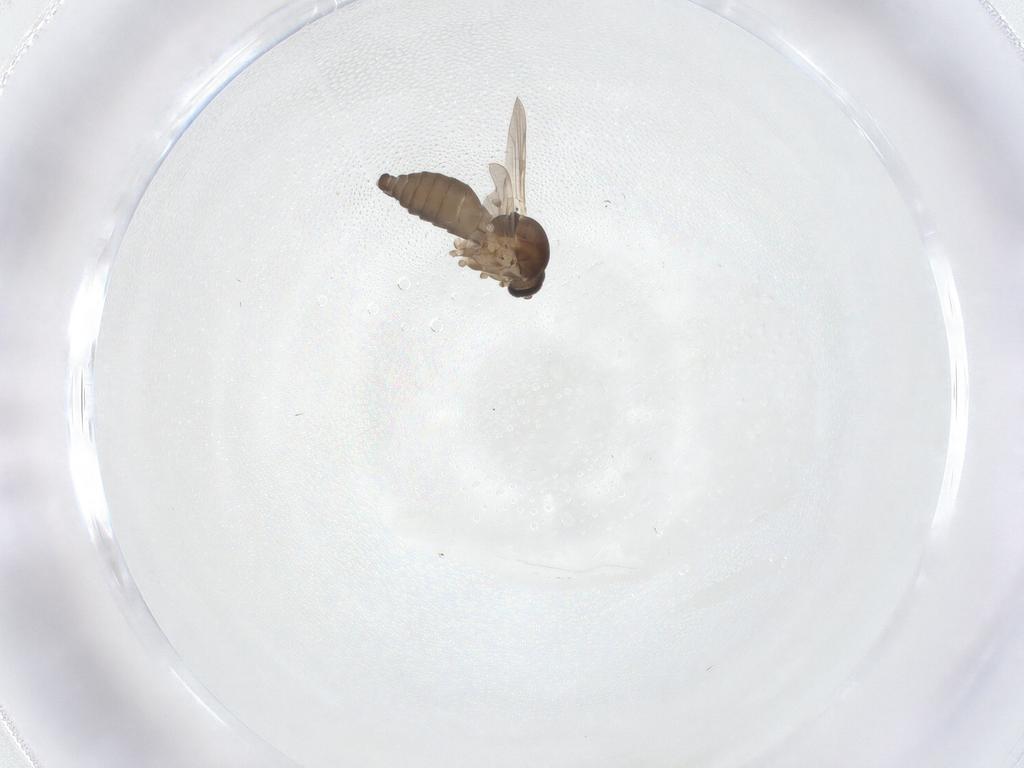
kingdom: Animalia
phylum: Arthropoda
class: Insecta
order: Diptera
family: Ceratopogonidae
